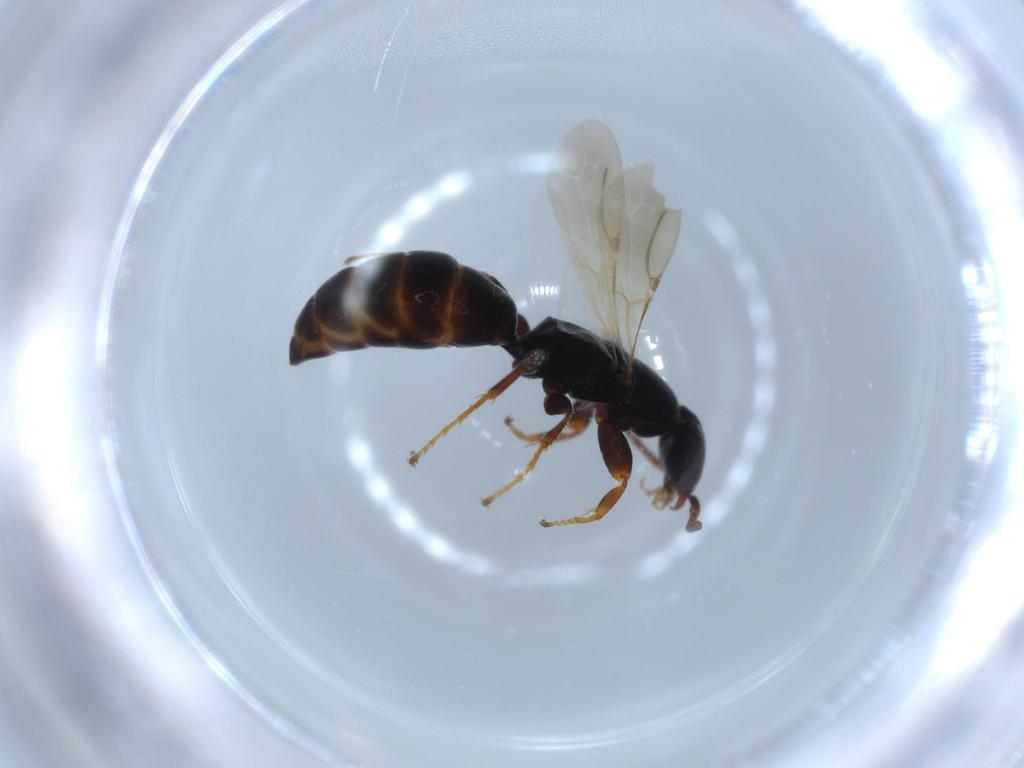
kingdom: Animalia
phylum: Arthropoda
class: Insecta
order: Hymenoptera
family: Bethylidae
